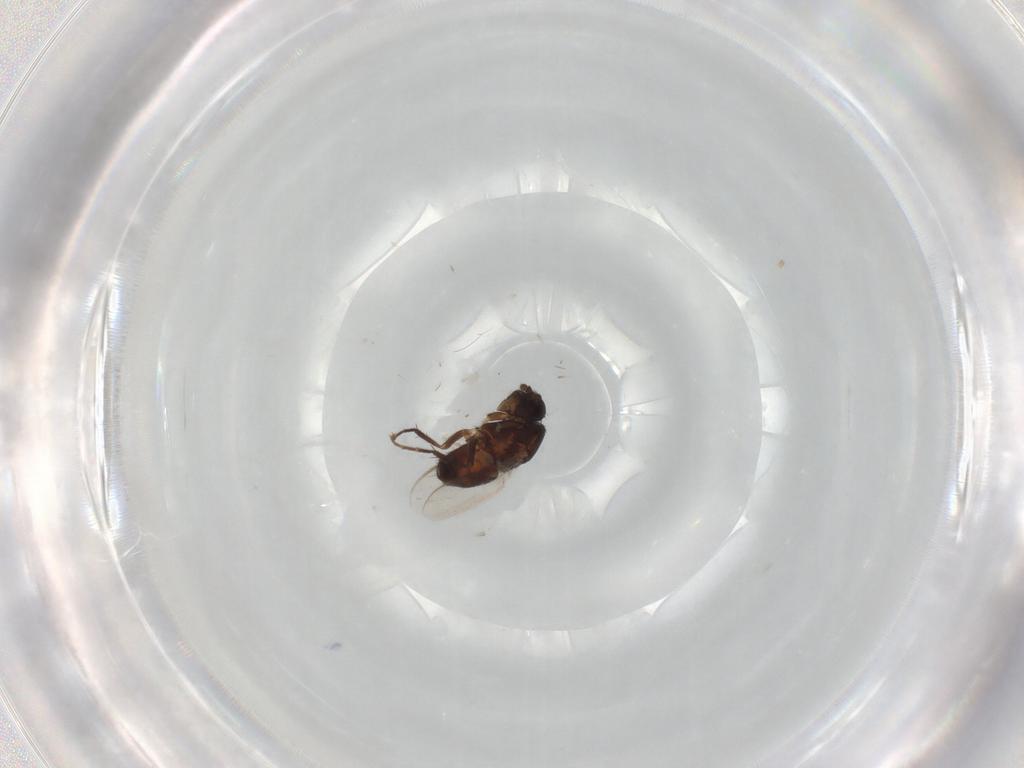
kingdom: Animalia
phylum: Arthropoda
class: Insecta
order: Diptera
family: Sphaeroceridae
